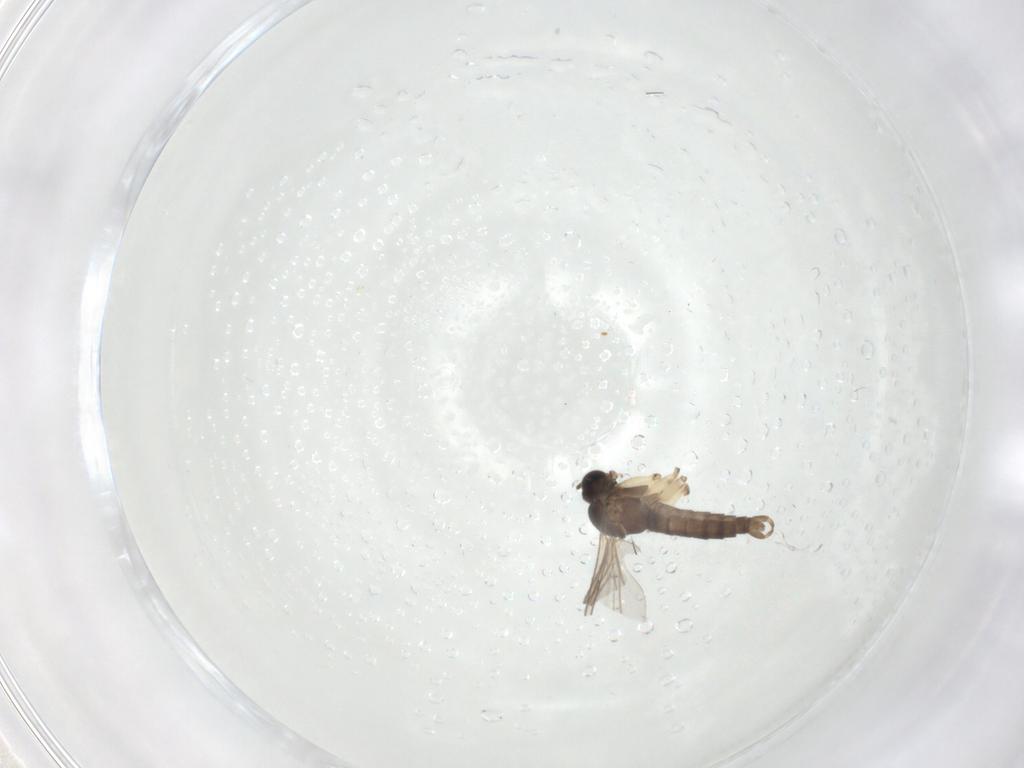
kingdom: Animalia
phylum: Arthropoda
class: Insecta
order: Diptera
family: Sciaridae
